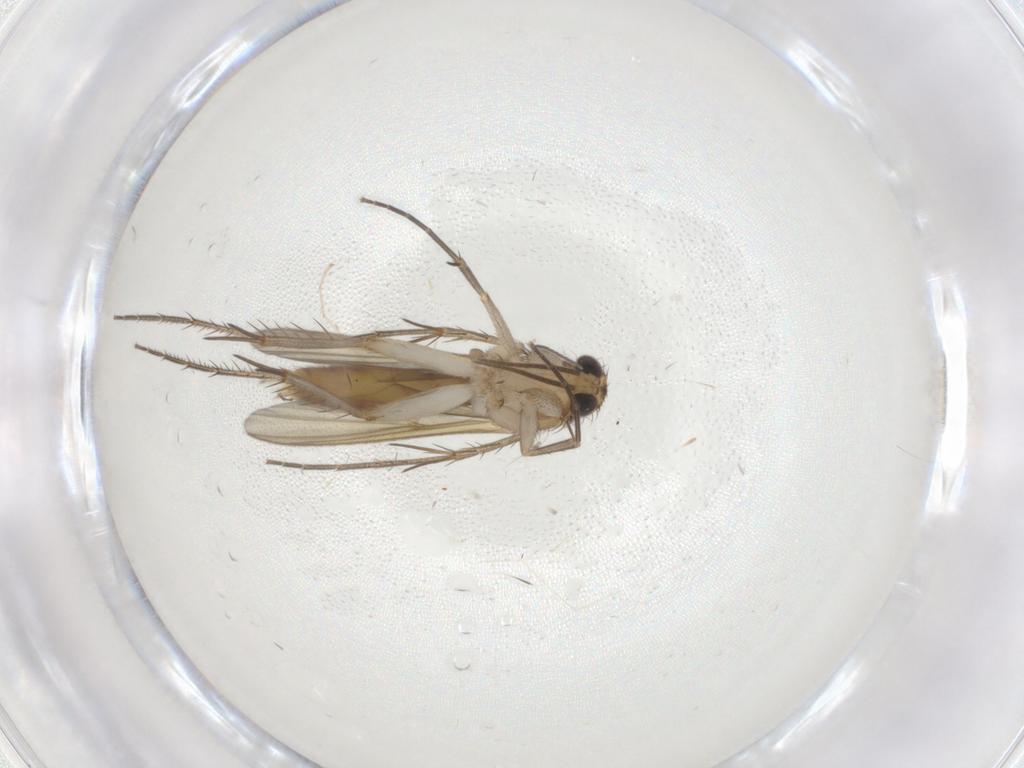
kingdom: Animalia
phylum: Arthropoda
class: Insecta
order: Diptera
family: Mycetophilidae
